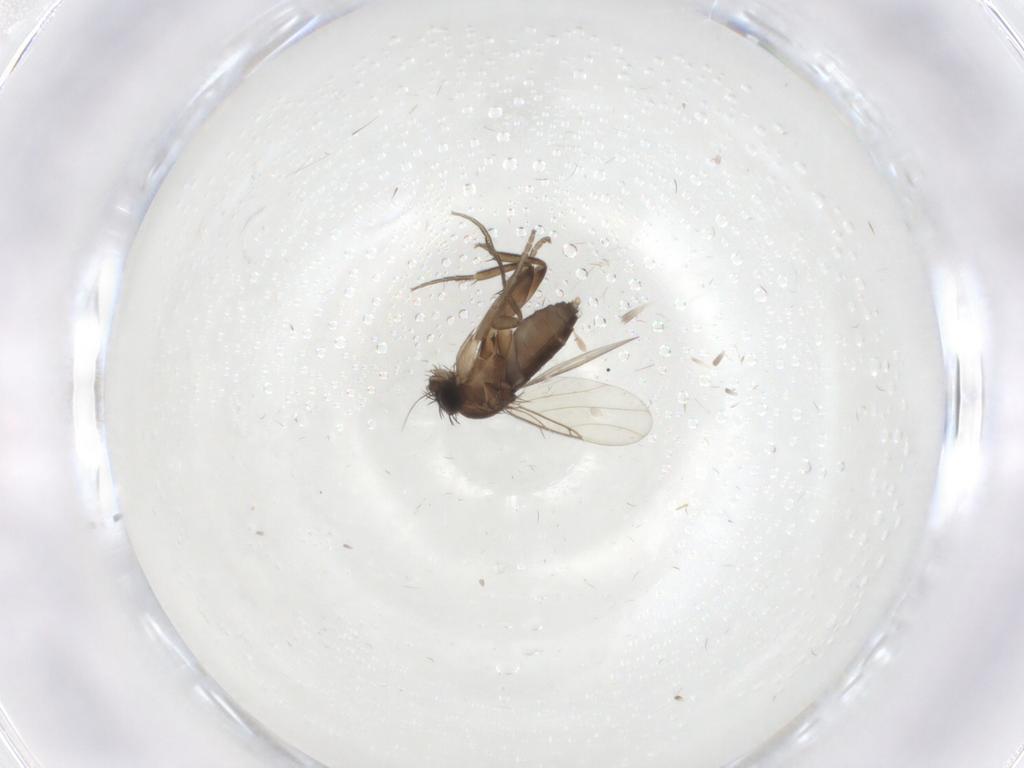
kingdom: Animalia
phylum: Arthropoda
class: Insecta
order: Diptera
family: Phoridae
